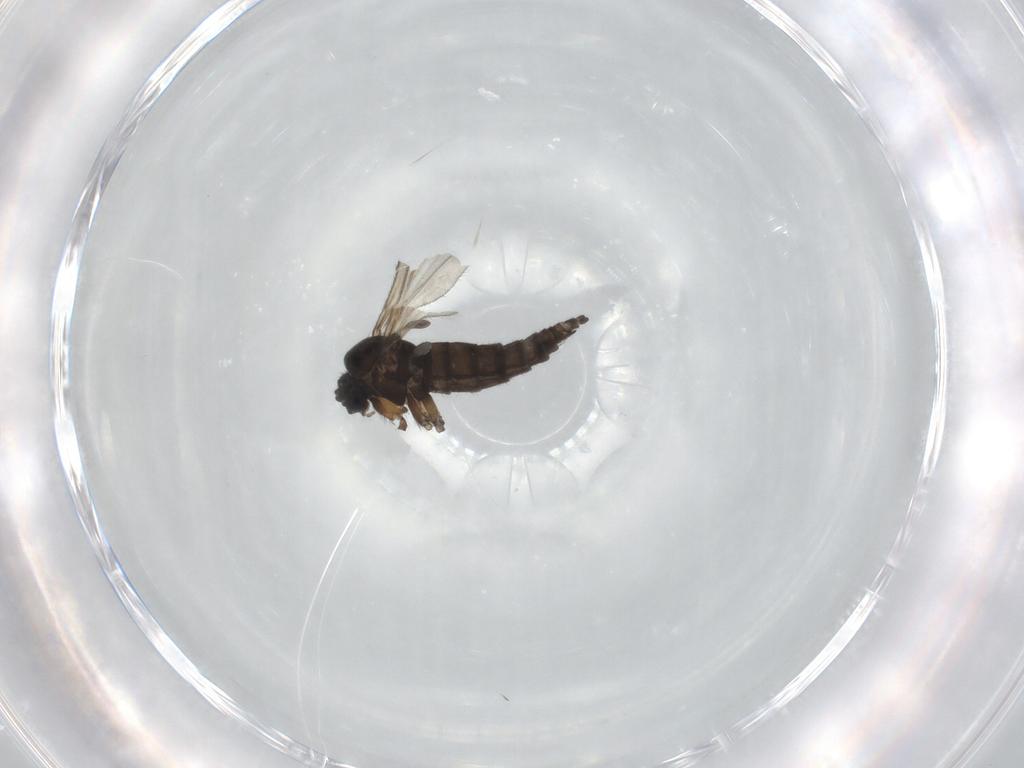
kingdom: Animalia
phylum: Arthropoda
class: Insecta
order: Diptera
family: Sciaridae
